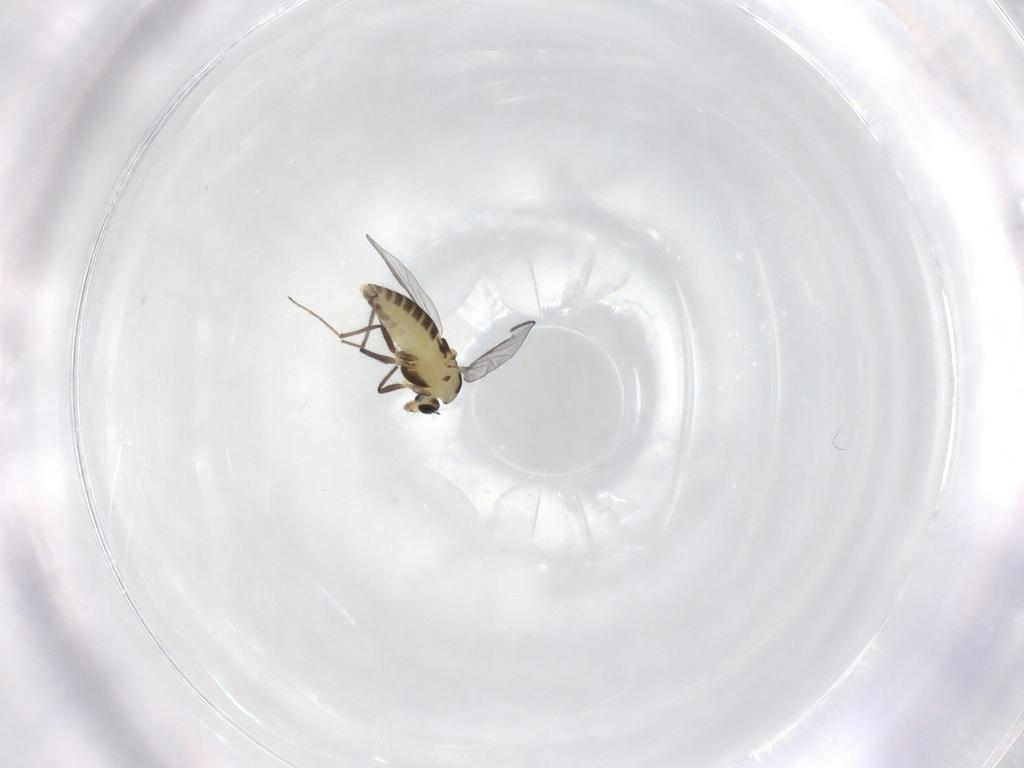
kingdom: Animalia
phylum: Arthropoda
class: Insecta
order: Diptera
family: Chironomidae
